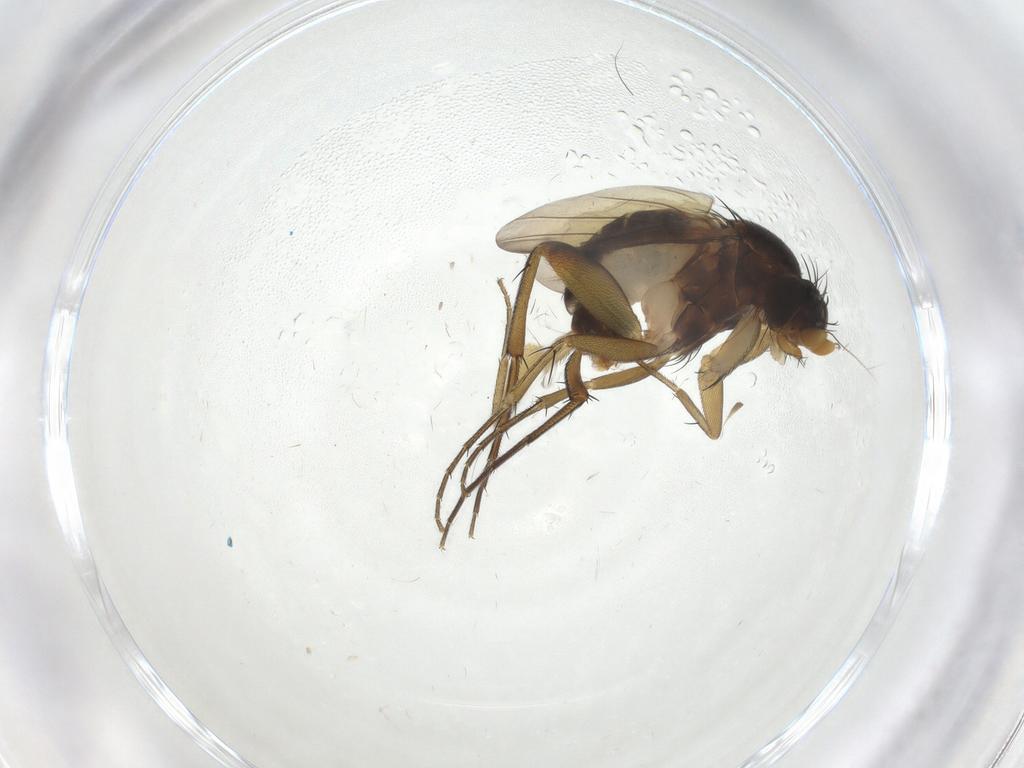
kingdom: Animalia
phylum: Arthropoda
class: Insecta
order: Diptera
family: Phoridae
